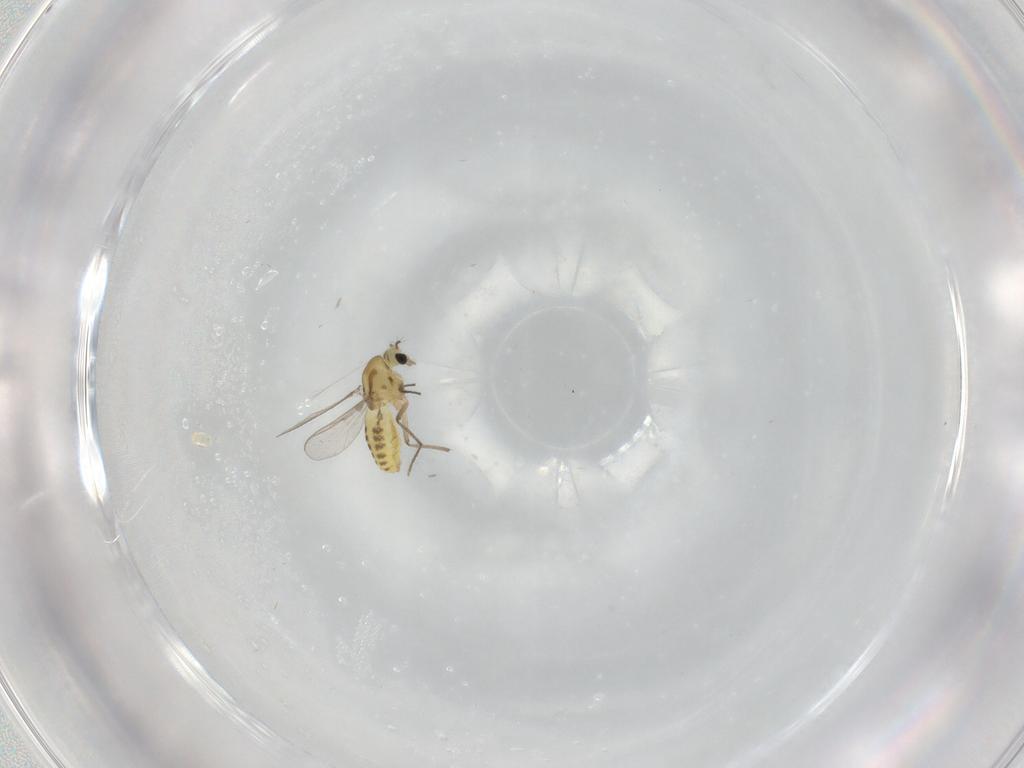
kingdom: Animalia
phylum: Arthropoda
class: Insecta
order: Diptera
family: Chironomidae
